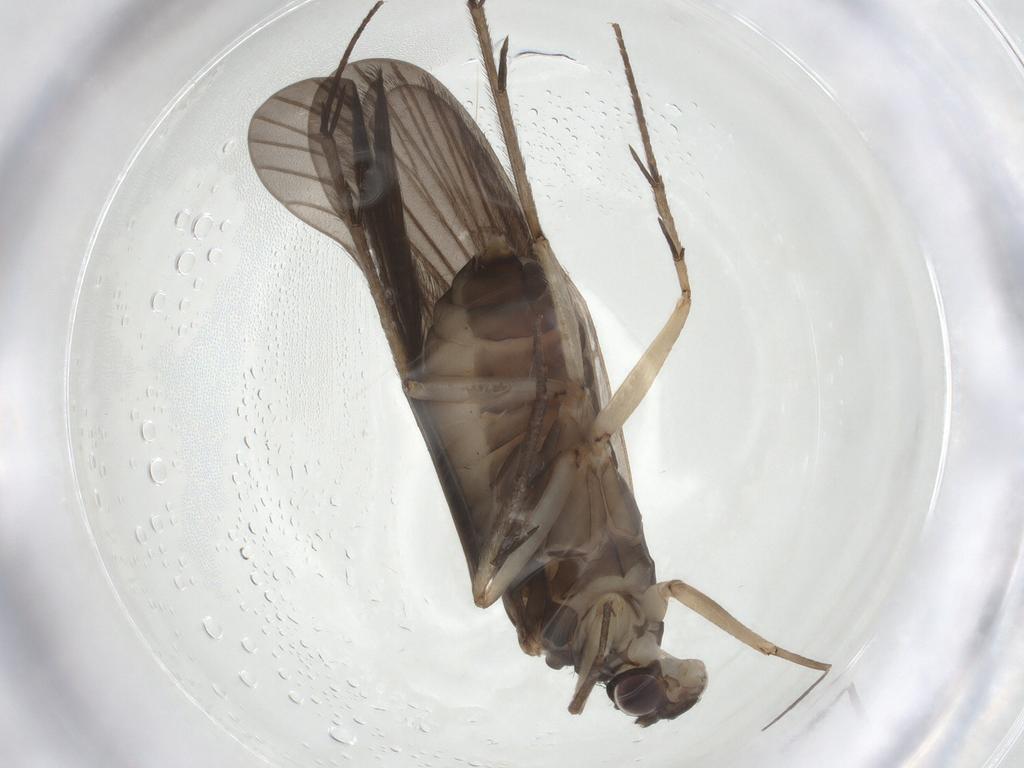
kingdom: Animalia
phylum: Arthropoda
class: Insecta
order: Trichoptera
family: Philopotamidae
